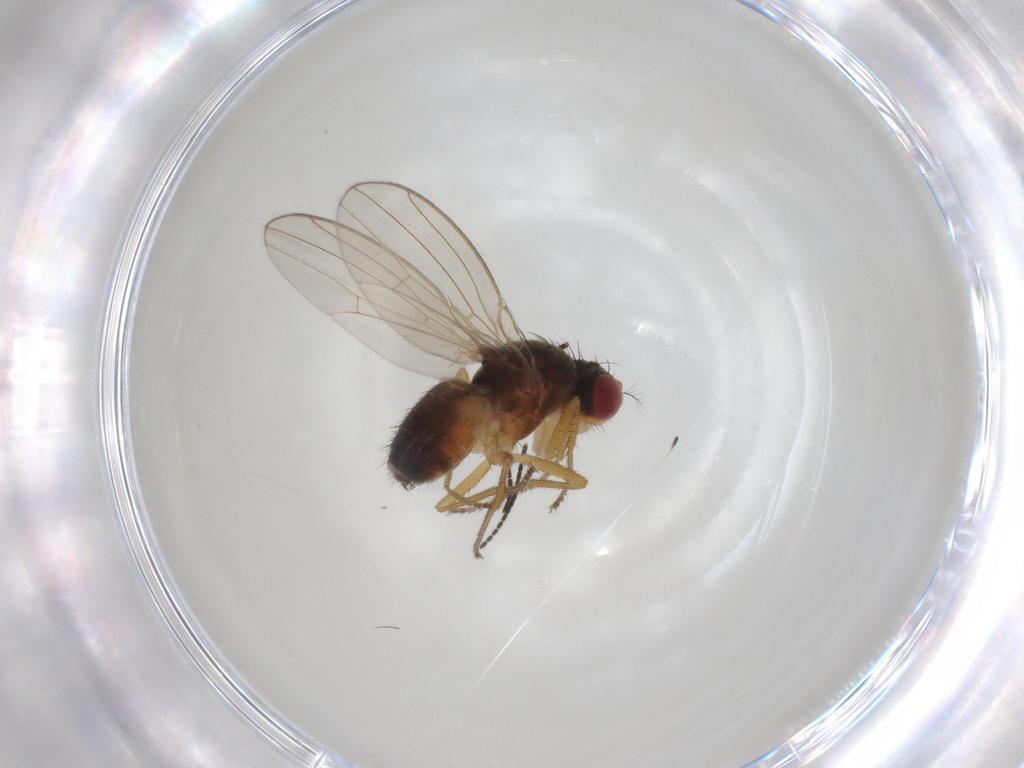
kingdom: Animalia
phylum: Arthropoda
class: Insecta
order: Diptera
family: Drosophilidae
